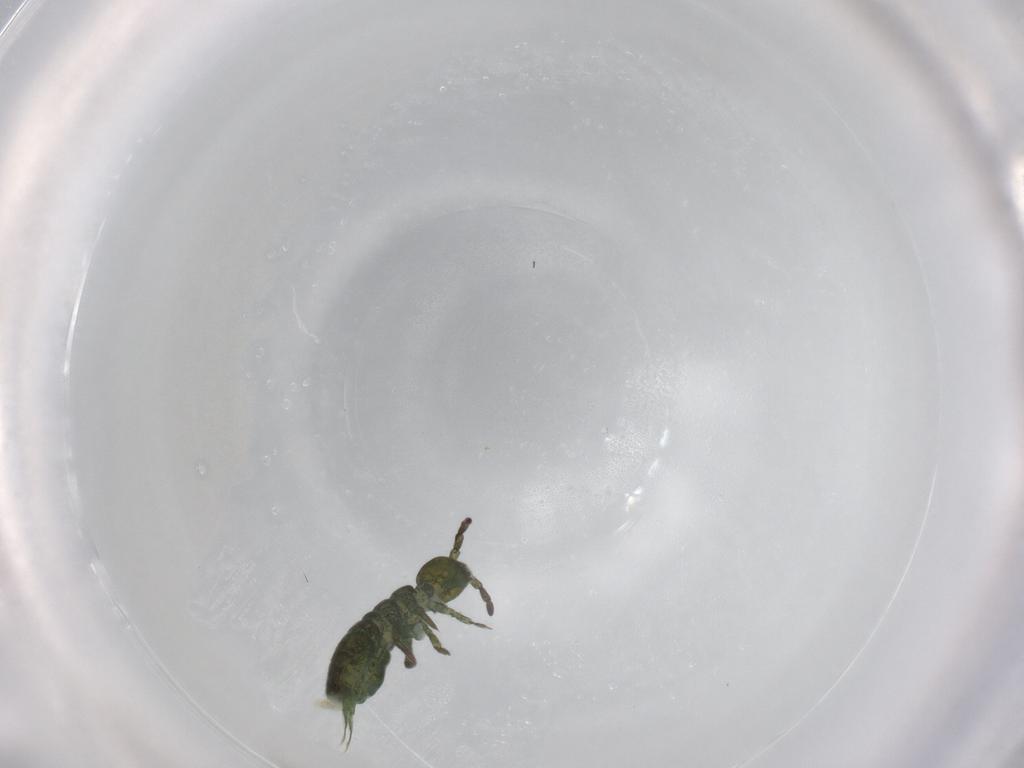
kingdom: Animalia
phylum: Arthropoda
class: Collembola
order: Entomobryomorpha
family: Isotomidae
